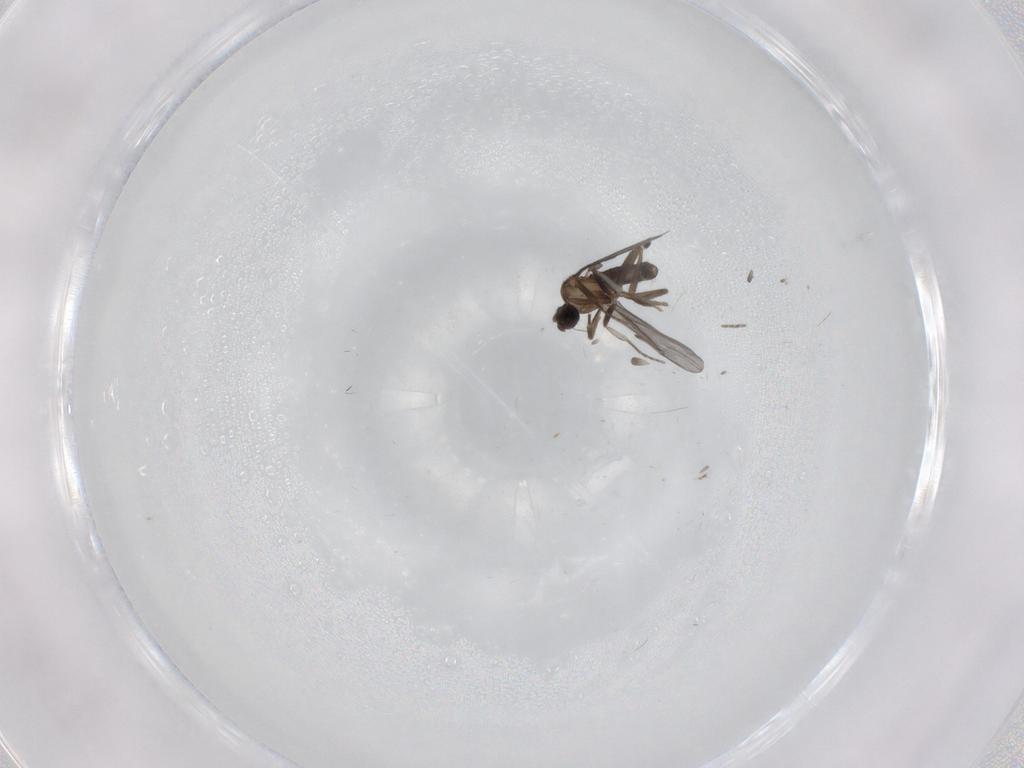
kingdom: Animalia
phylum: Arthropoda
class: Insecta
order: Diptera
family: Phoridae
